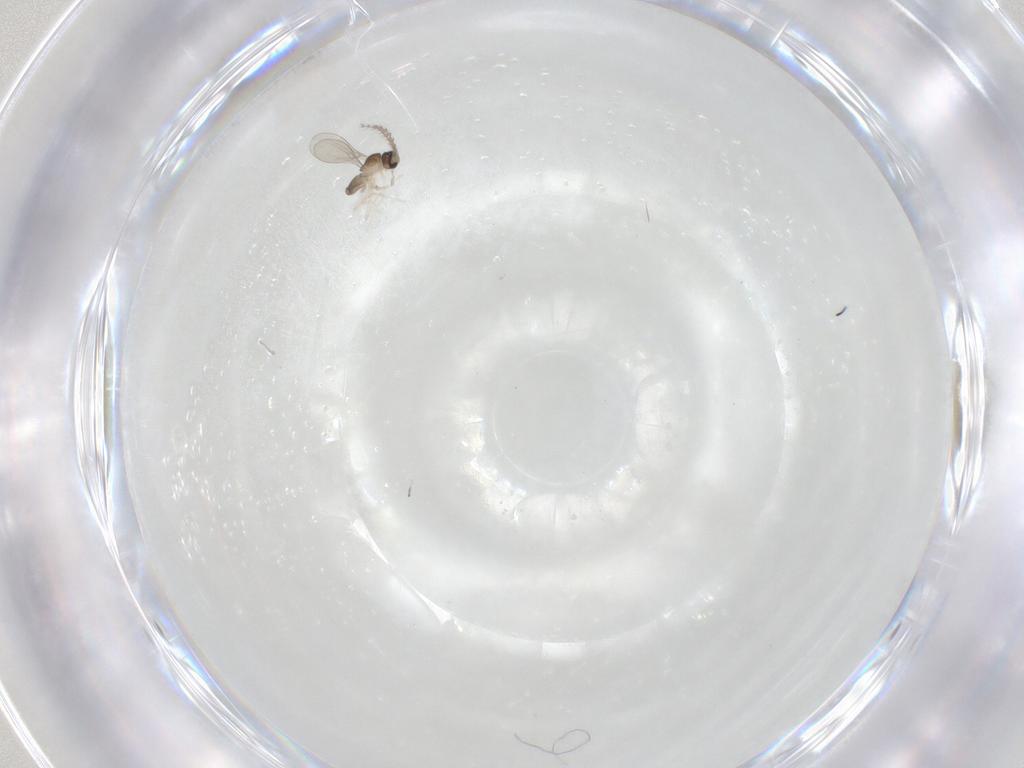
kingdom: Animalia
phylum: Arthropoda
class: Insecta
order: Diptera
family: Cecidomyiidae
